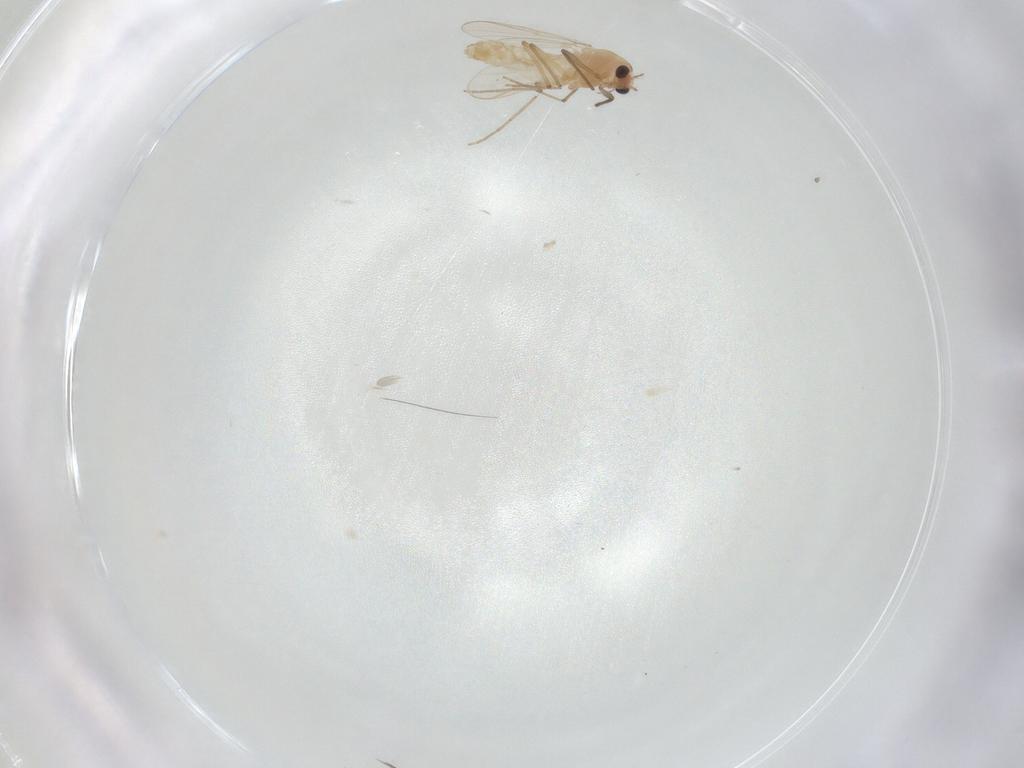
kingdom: Animalia
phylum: Arthropoda
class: Insecta
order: Diptera
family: Chironomidae
